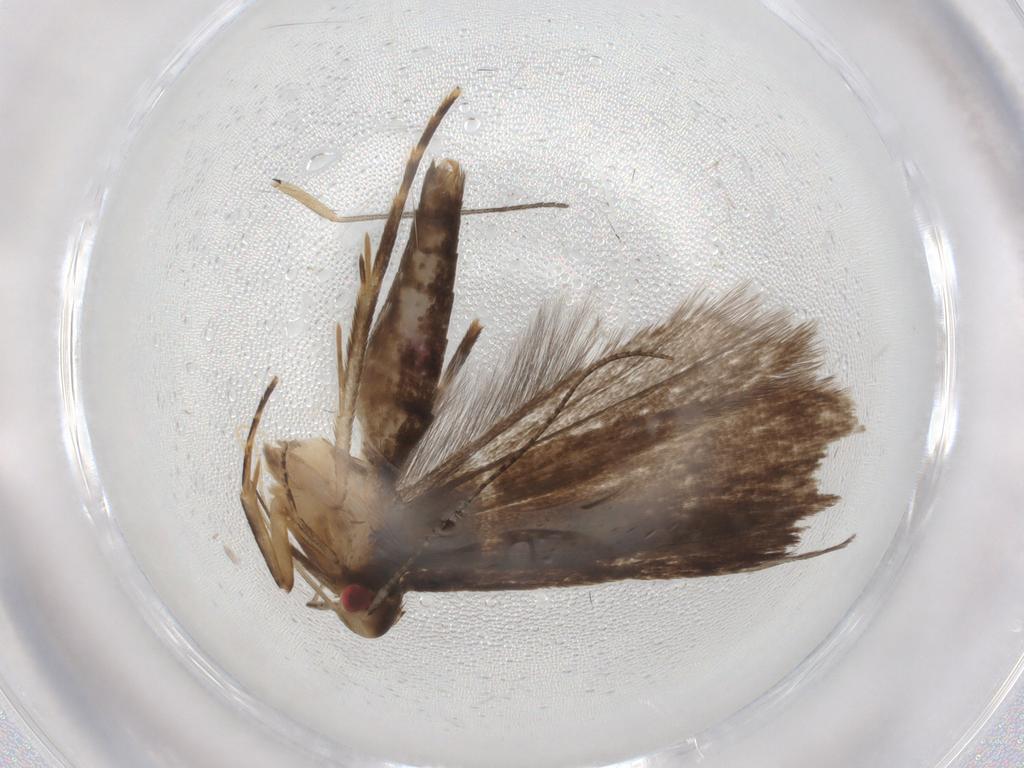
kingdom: Animalia
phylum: Arthropoda
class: Insecta
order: Lepidoptera
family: Gelechiidae
